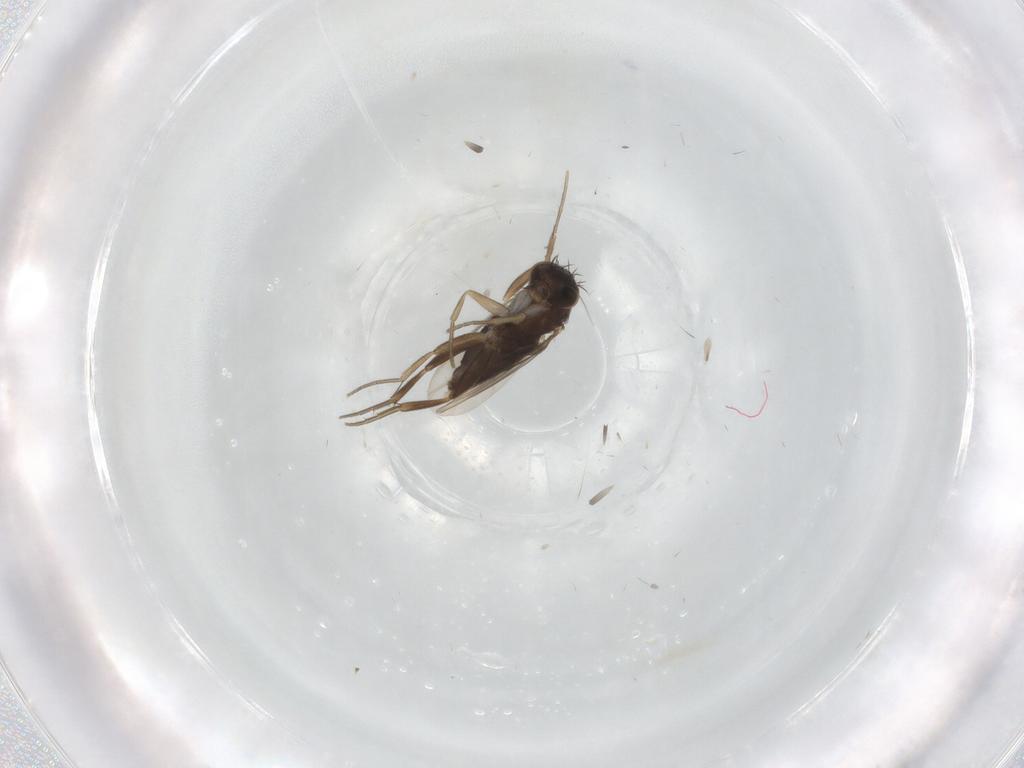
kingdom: Animalia
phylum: Arthropoda
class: Insecta
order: Diptera
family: Phoridae
